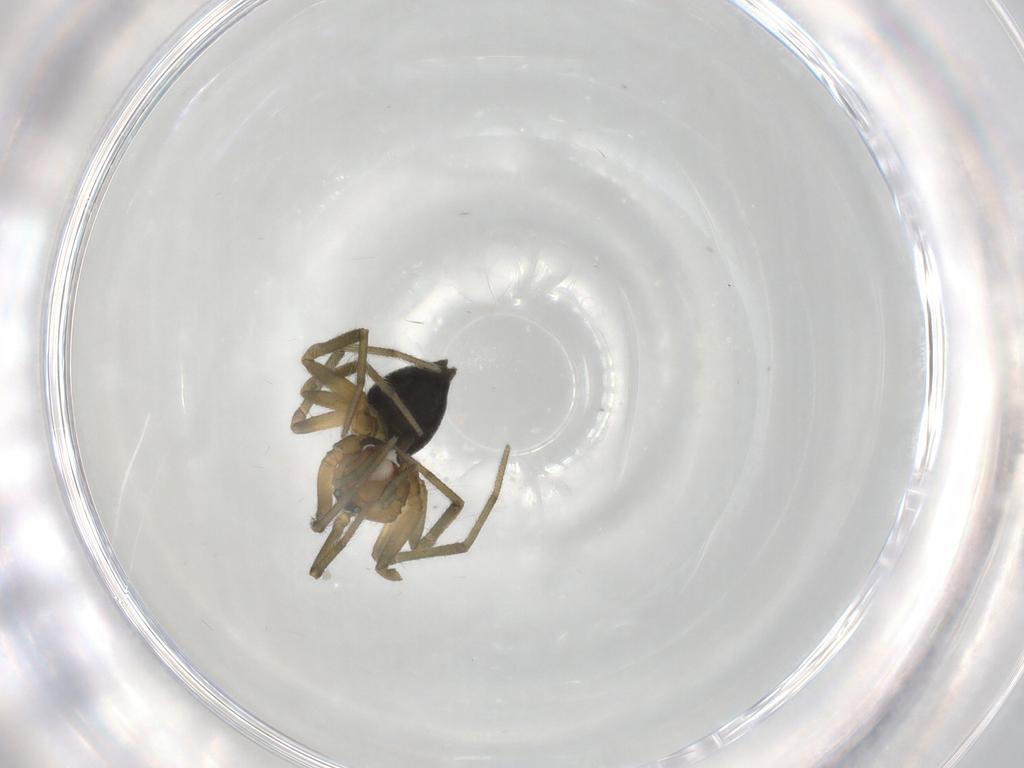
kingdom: Animalia
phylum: Arthropoda
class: Arachnida
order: Araneae
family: Linyphiidae
